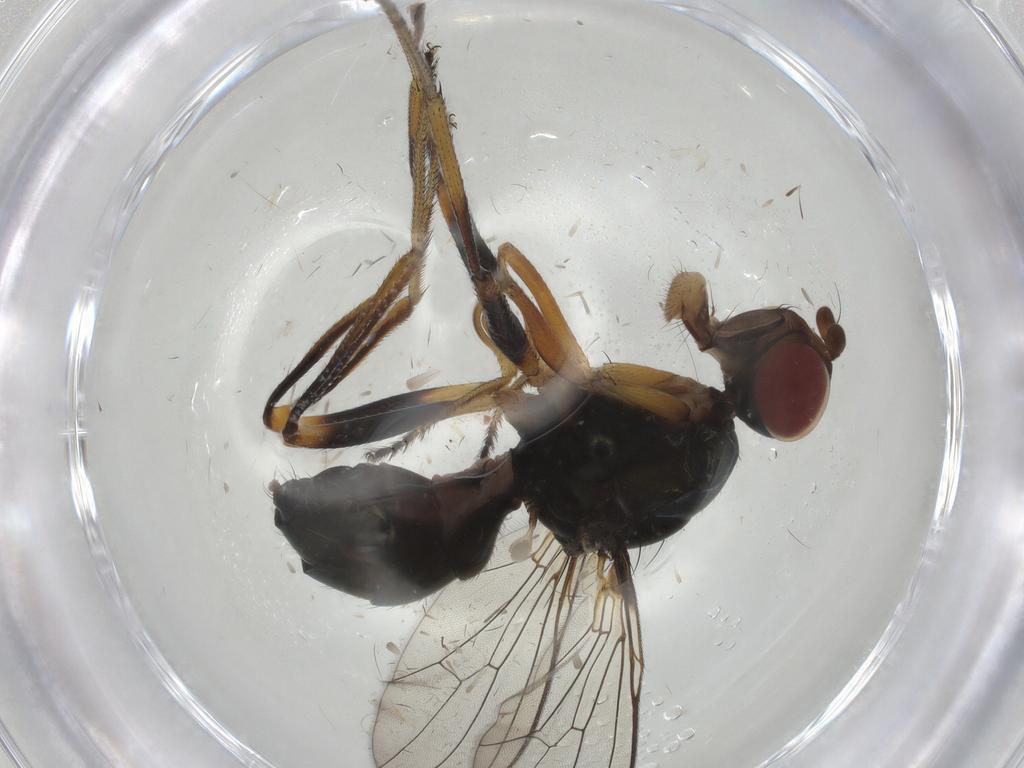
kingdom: Animalia
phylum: Arthropoda
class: Insecta
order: Diptera
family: Sepsidae
